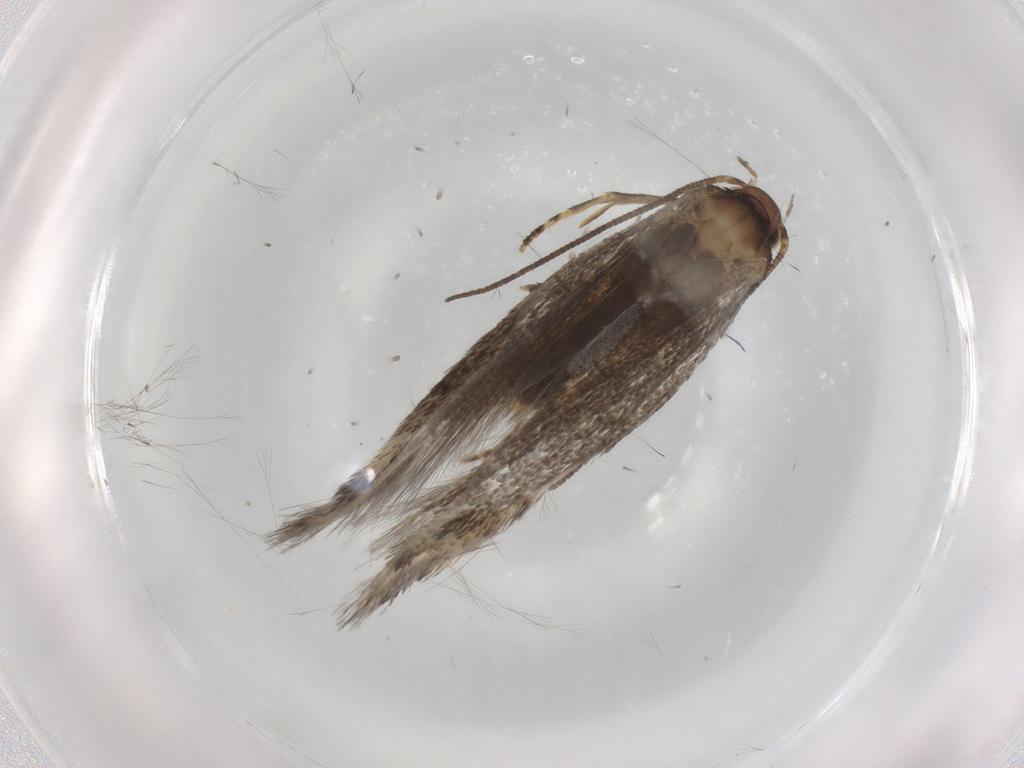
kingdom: Animalia
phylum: Arthropoda
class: Insecta
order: Lepidoptera
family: Elachistidae
